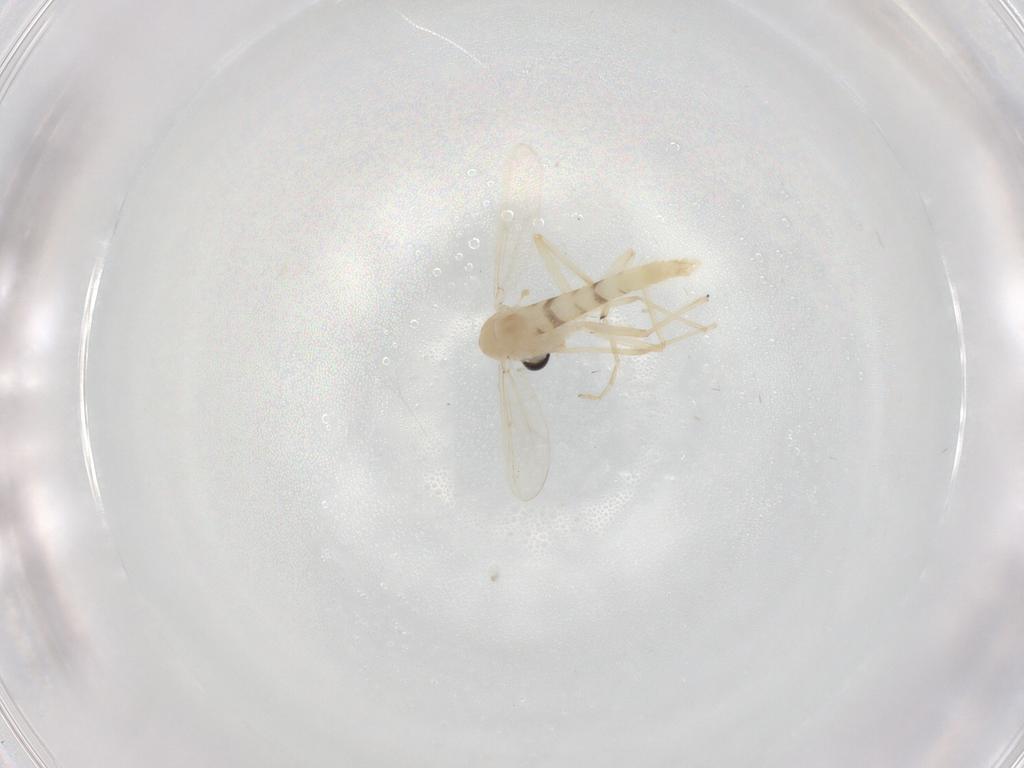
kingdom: Animalia
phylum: Arthropoda
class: Insecta
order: Diptera
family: Chironomidae
